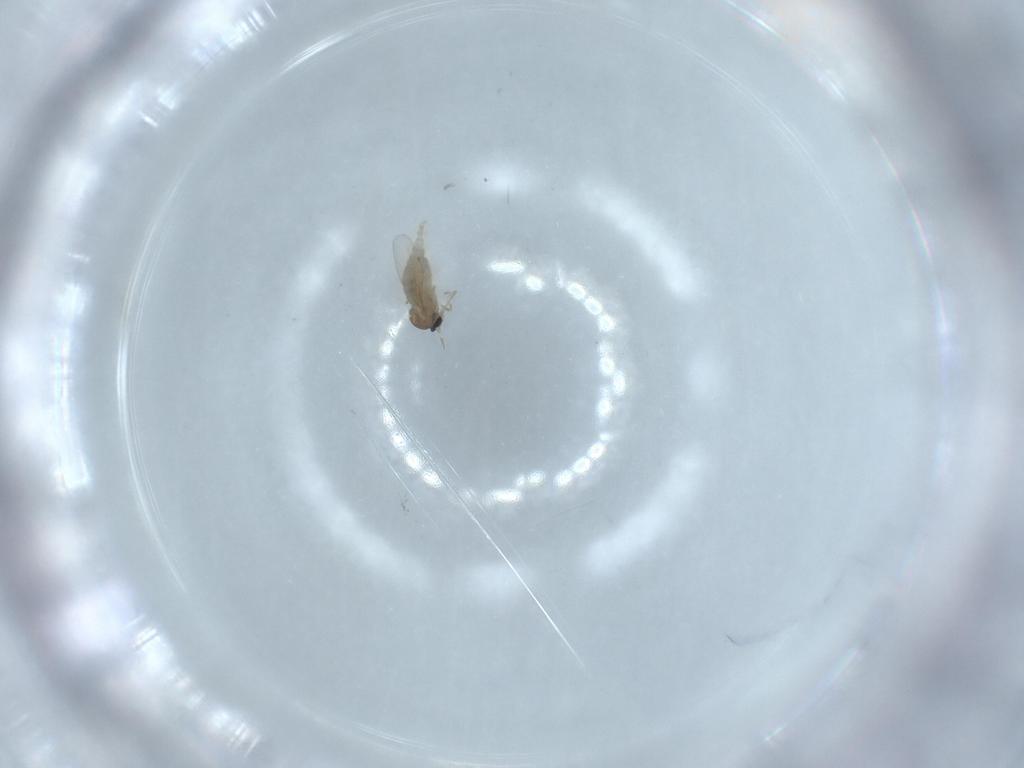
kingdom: Animalia
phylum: Arthropoda
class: Insecta
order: Diptera
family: Sciaridae
